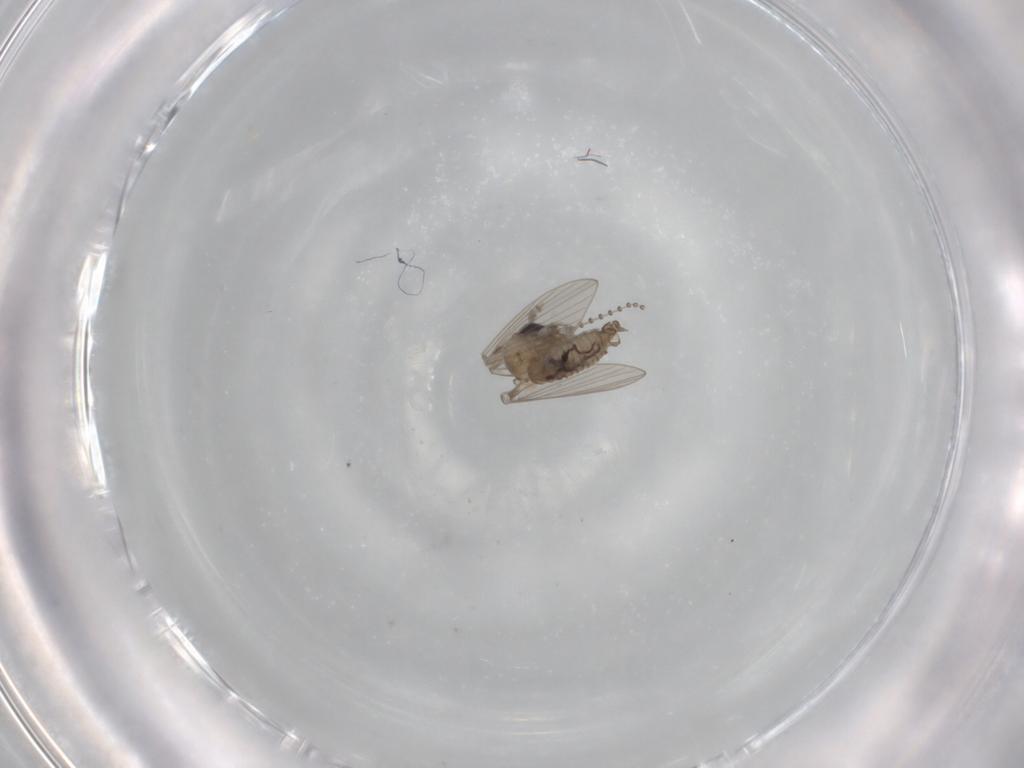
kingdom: Animalia
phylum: Arthropoda
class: Insecta
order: Diptera
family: Psychodidae
